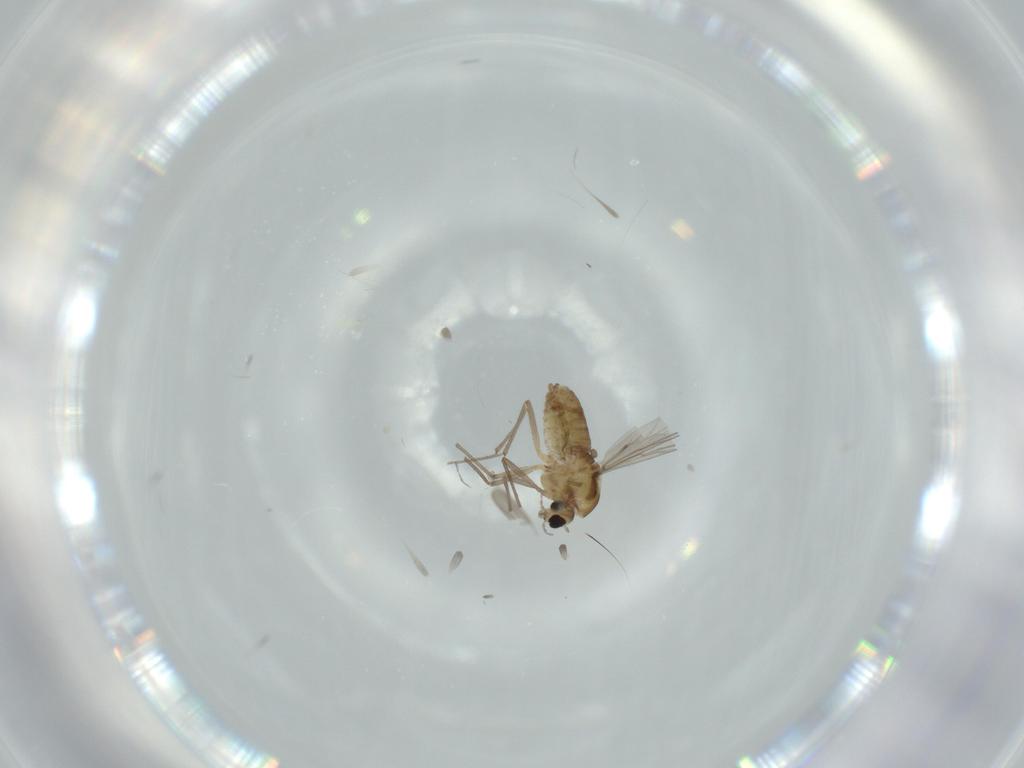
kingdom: Animalia
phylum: Arthropoda
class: Insecta
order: Diptera
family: Chironomidae
